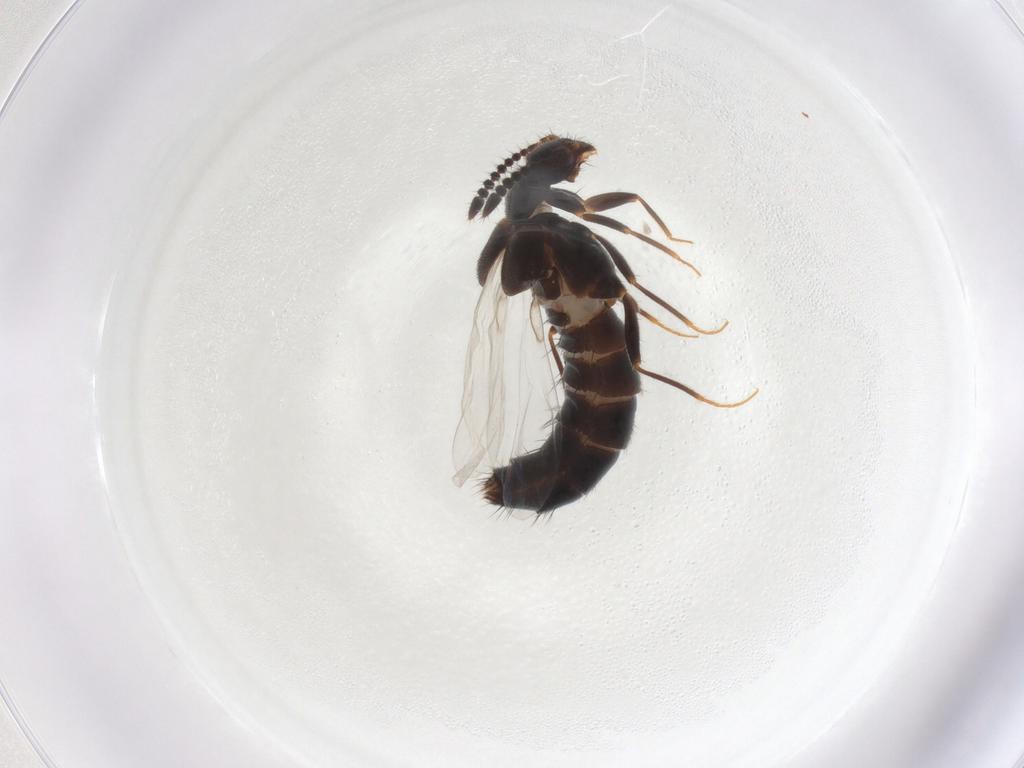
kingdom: Animalia
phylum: Arthropoda
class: Insecta
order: Coleoptera
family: Staphylinidae
